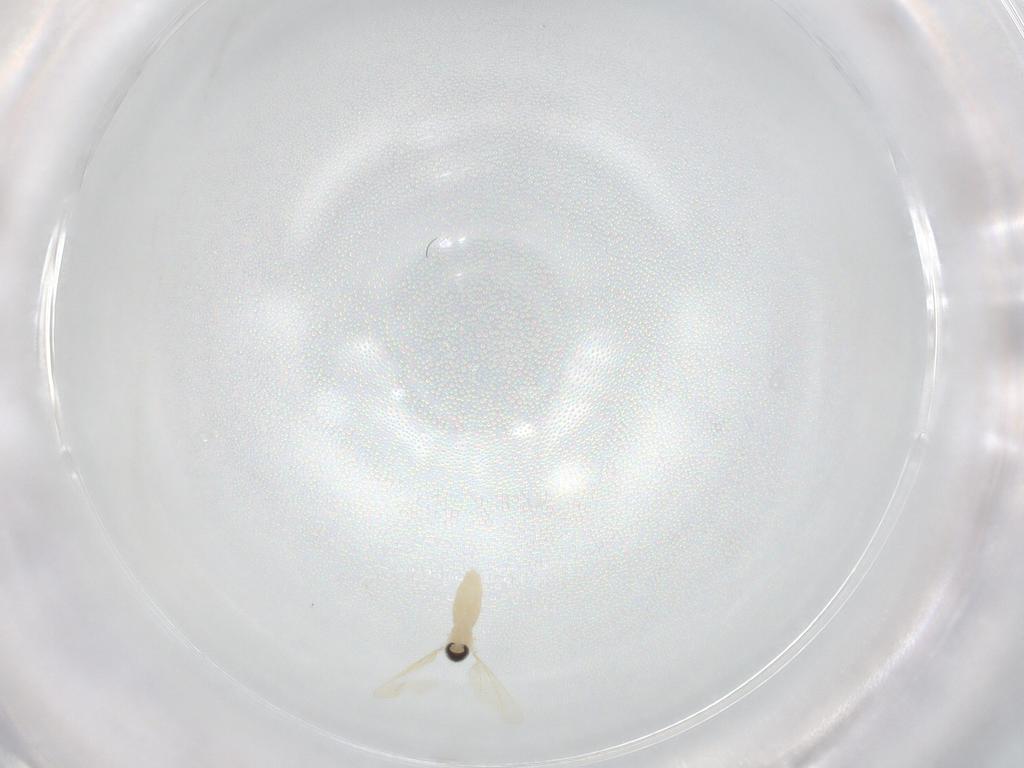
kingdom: Animalia
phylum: Arthropoda
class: Insecta
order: Diptera
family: Cecidomyiidae
